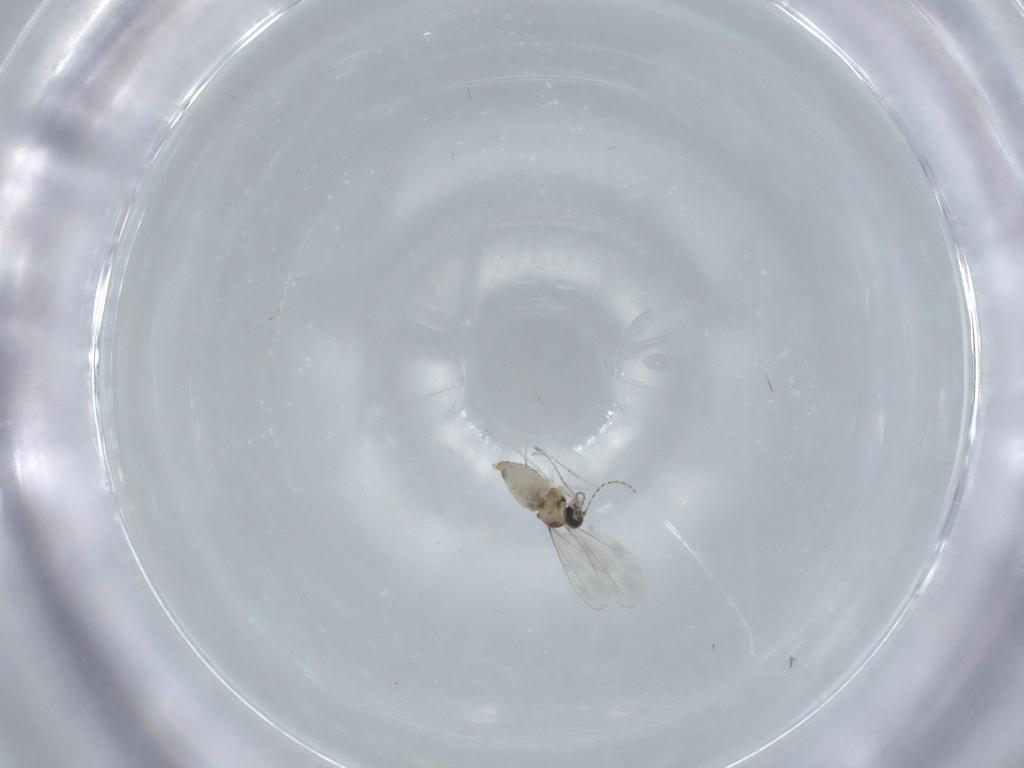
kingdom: Animalia
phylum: Arthropoda
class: Insecta
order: Diptera
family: Cecidomyiidae
